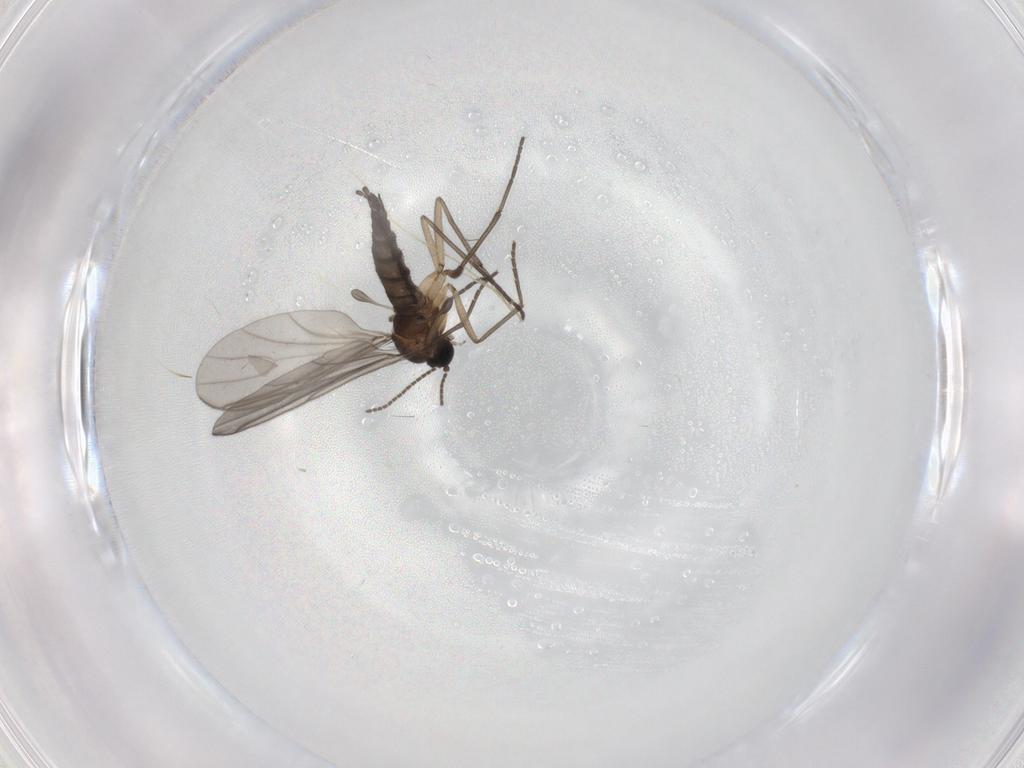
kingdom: Animalia
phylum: Arthropoda
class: Insecta
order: Diptera
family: Sciaridae
